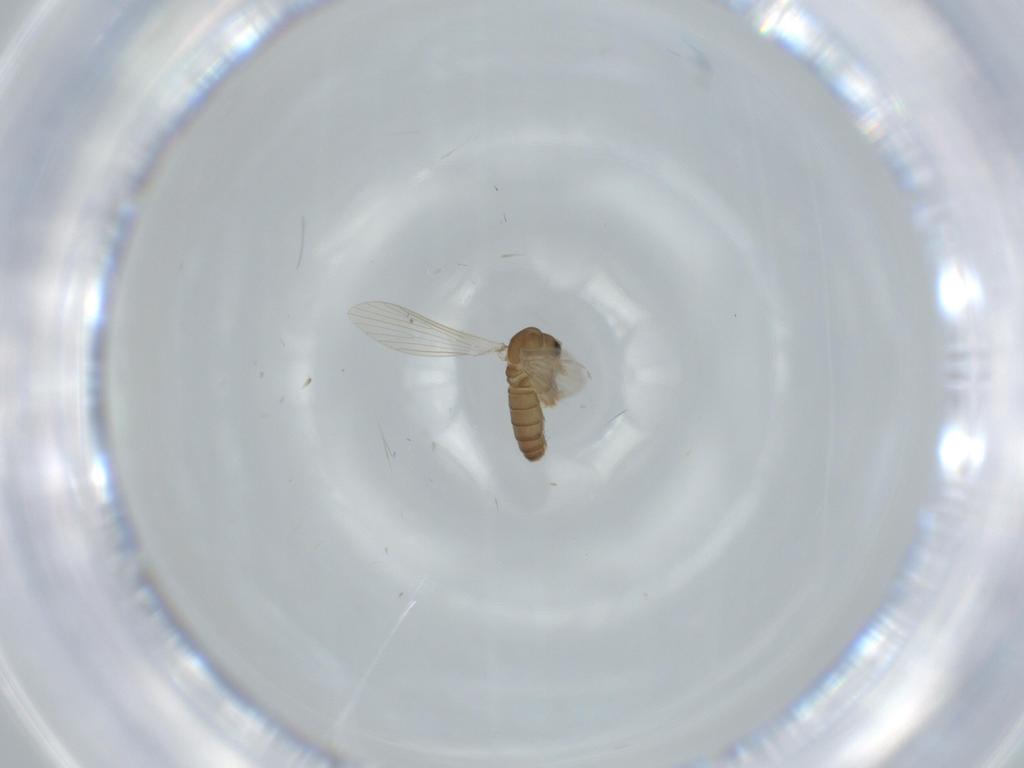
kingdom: Animalia
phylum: Arthropoda
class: Insecta
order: Diptera
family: Psychodidae
